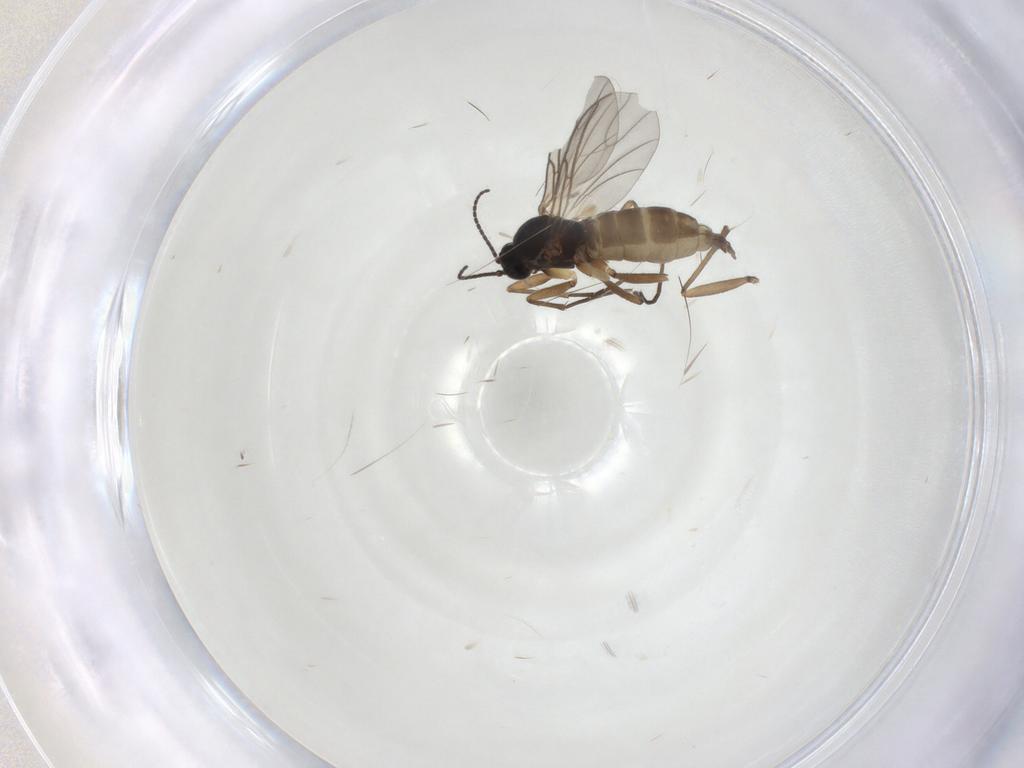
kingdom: Animalia
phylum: Arthropoda
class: Insecta
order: Diptera
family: Sciaridae
